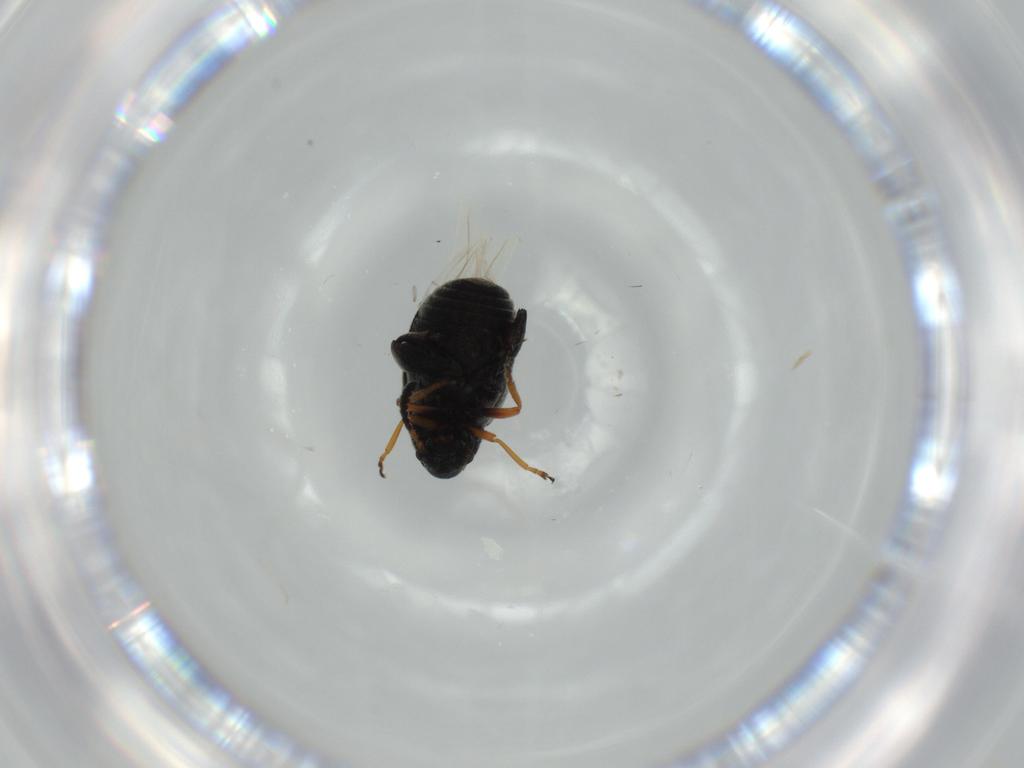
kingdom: Animalia
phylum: Arthropoda
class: Insecta
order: Coleoptera
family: Chrysomelidae
